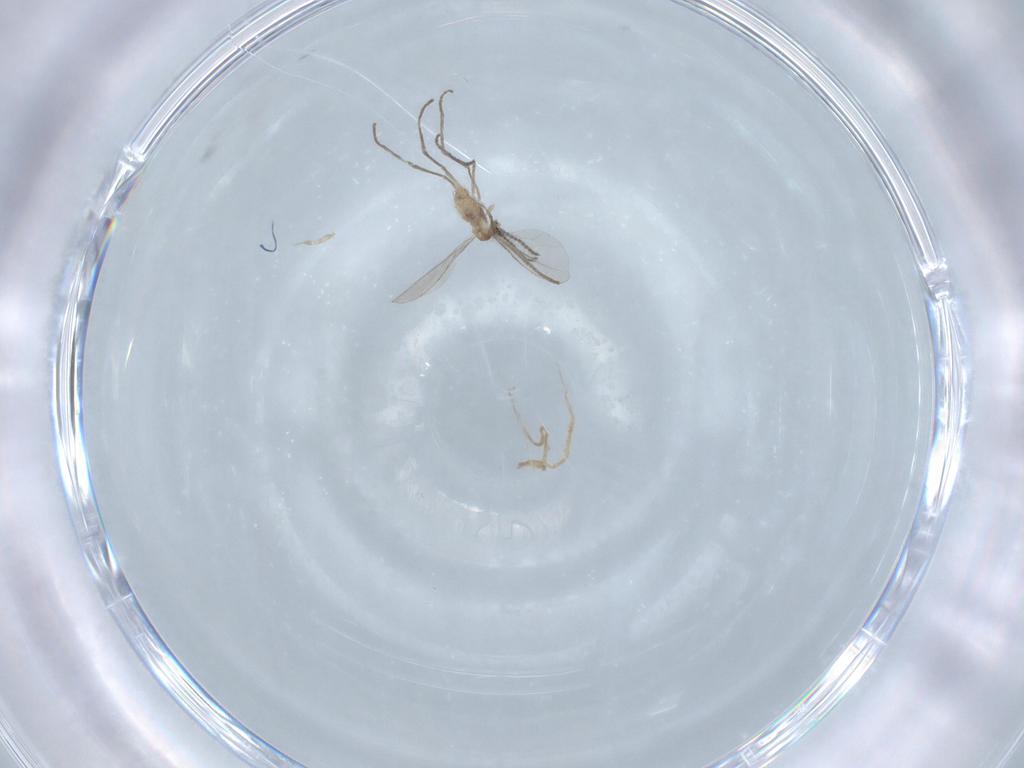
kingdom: Animalia
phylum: Arthropoda
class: Insecta
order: Diptera
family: Cecidomyiidae
